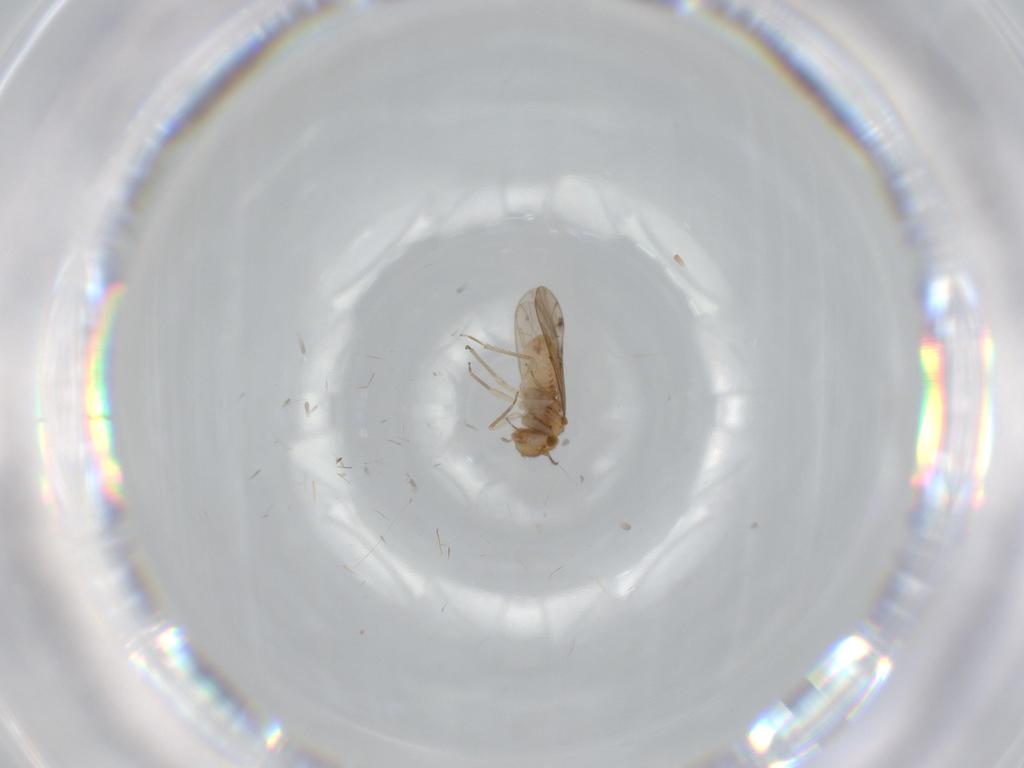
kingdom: Animalia
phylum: Arthropoda
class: Insecta
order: Psocodea
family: Ectopsocidae
